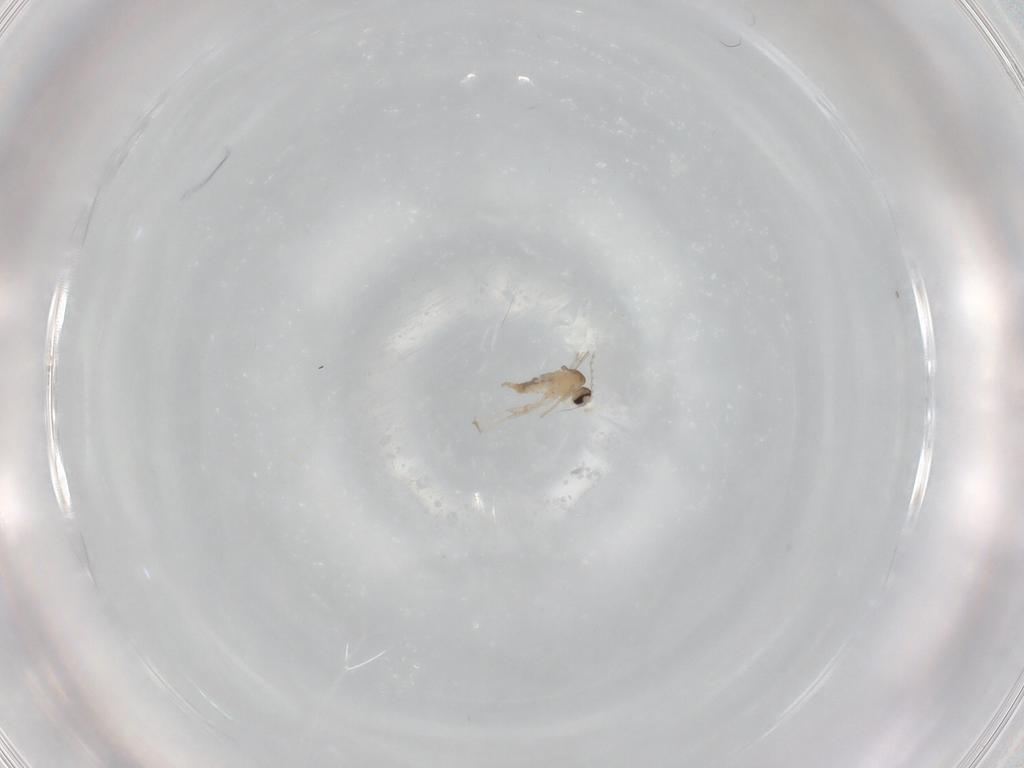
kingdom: Animalia
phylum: Arthropoda
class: Insecta
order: Diptera
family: Cecidomyiidae
